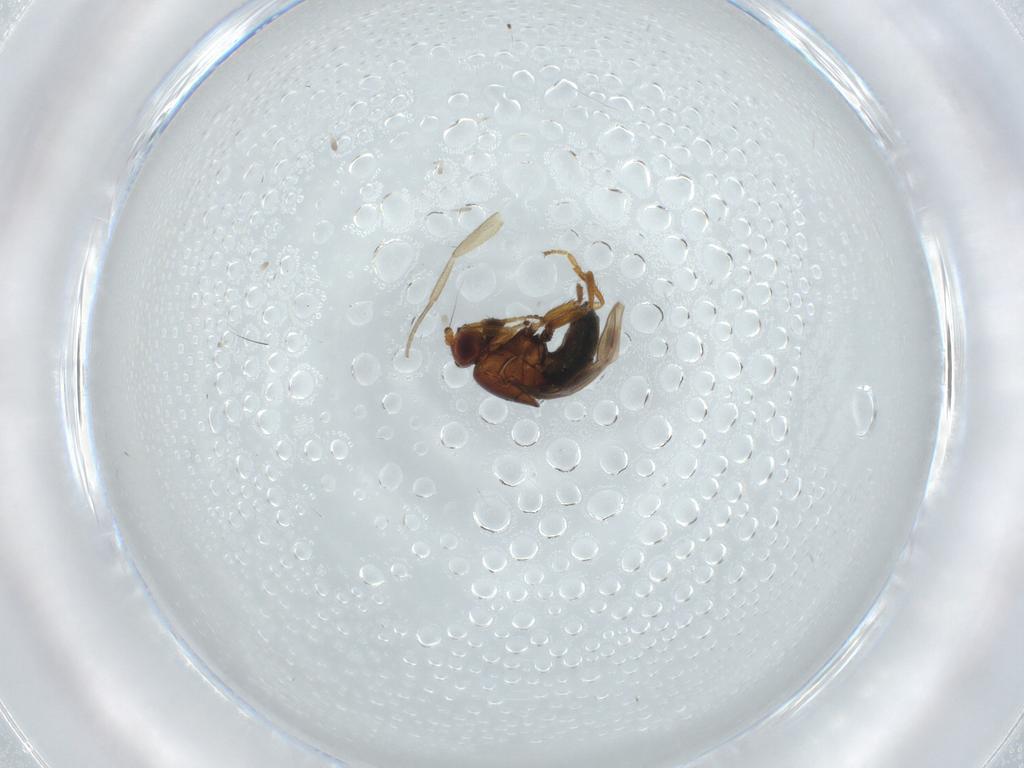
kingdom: Animalia
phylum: Arthropoda
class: Insecta
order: Diptera
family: Sphaeroceridae
